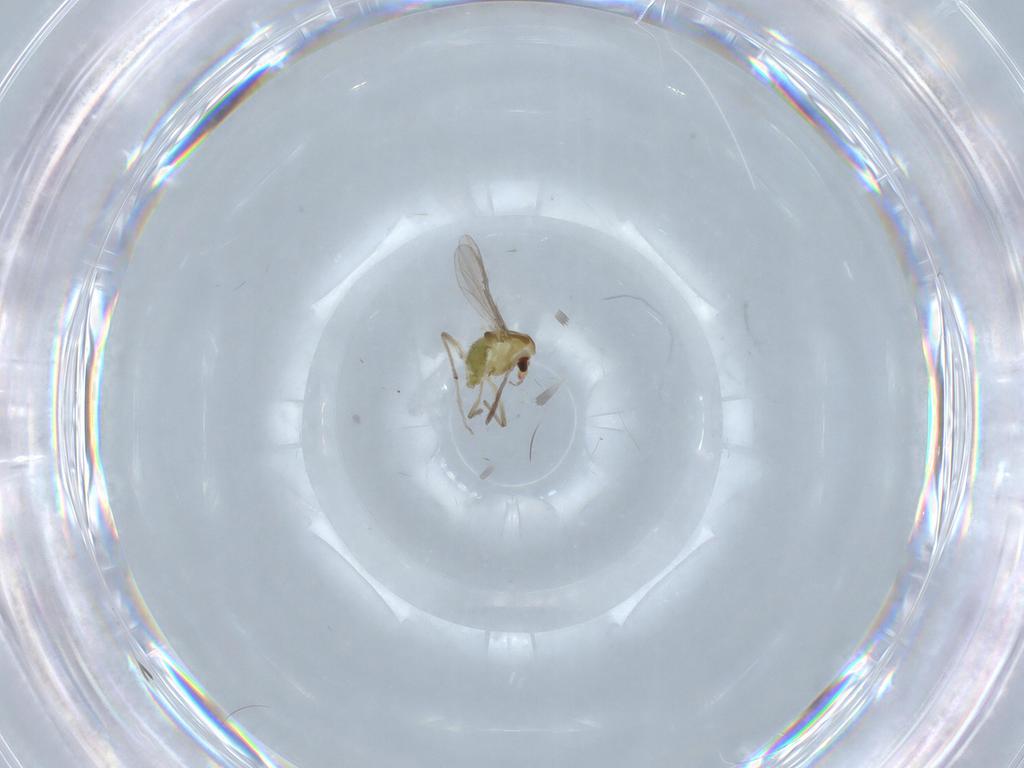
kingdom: Animalia
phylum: Arthropoda
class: Insecta
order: Diptera
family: Chironomidae
